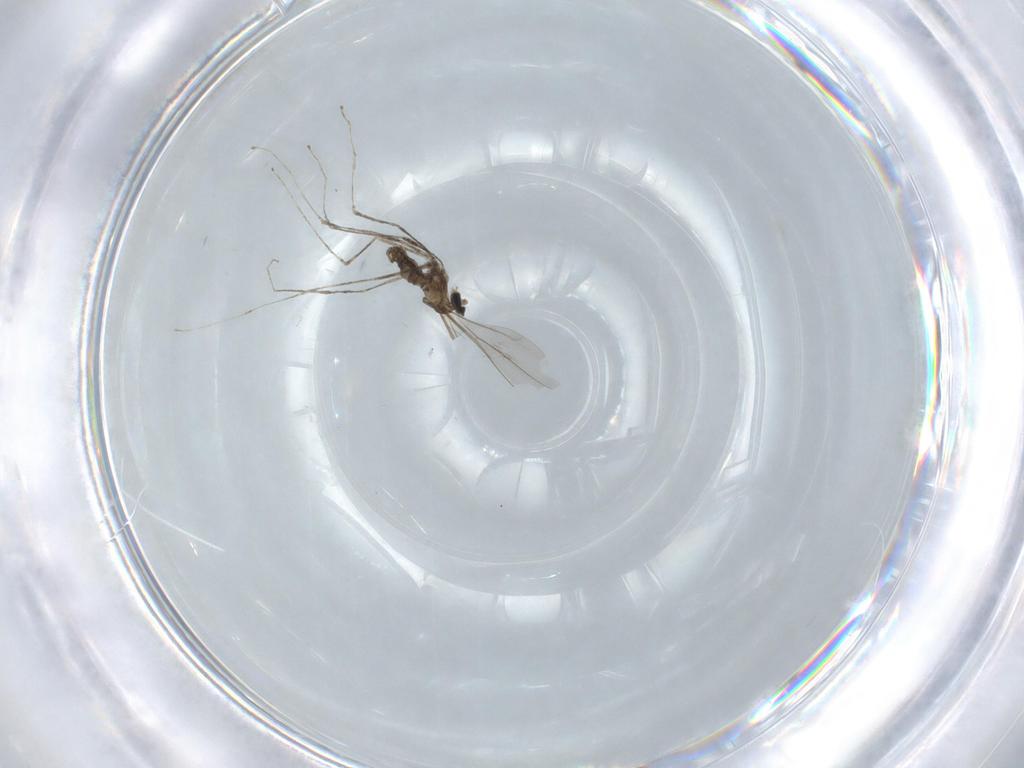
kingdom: Animalia
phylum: Arthropoda
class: Insecta
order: Diptera
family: Cecidomyiidae
